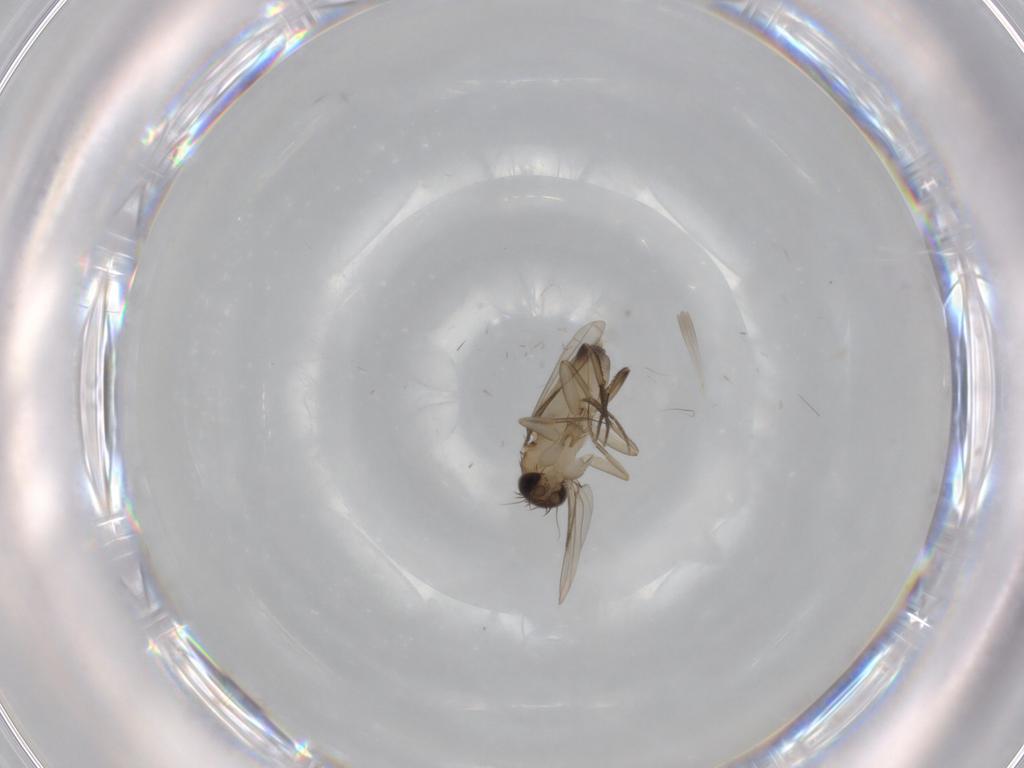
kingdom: Animalia
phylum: Arthropoda
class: Insecta
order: Diptera
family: Phoridae
